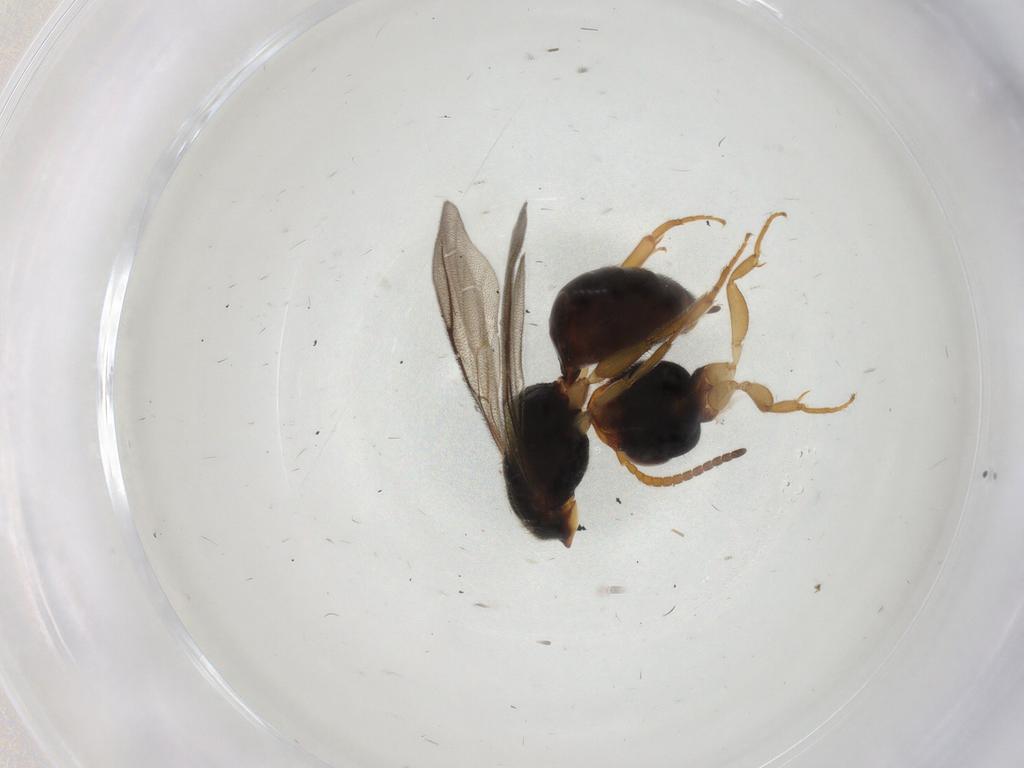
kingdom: Animalia
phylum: Arthropoda
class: Insecta
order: Hymenoptera
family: Bethylidae
